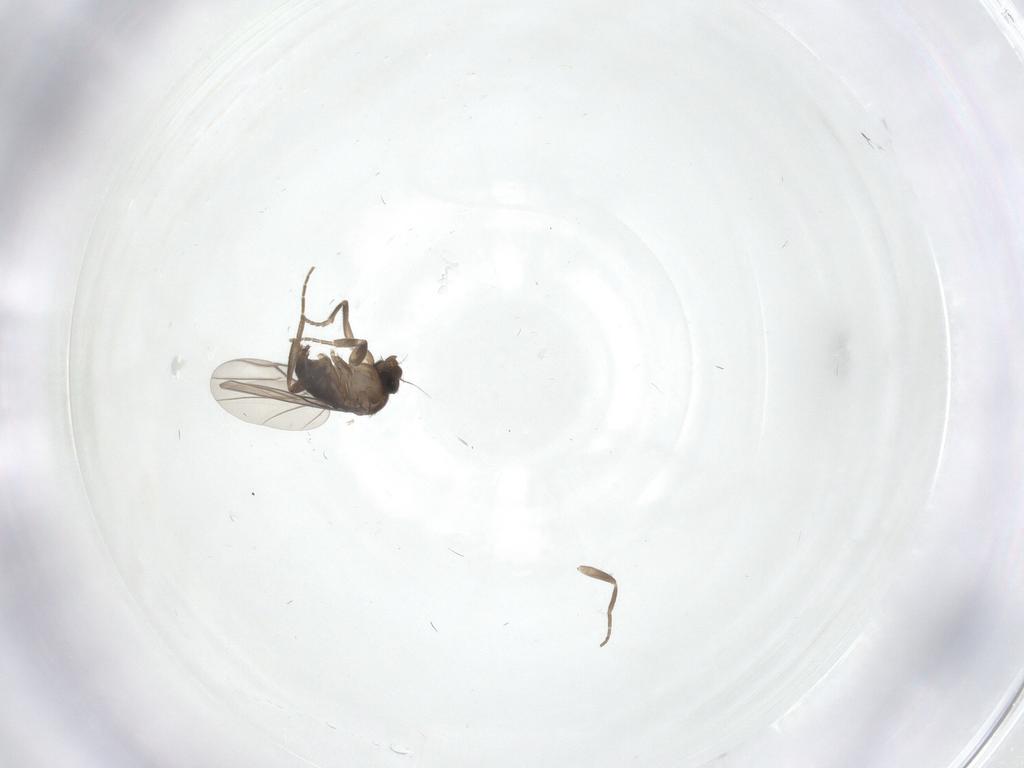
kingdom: Animalia
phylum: Arthropoda
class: Insecta
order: Diptera
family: Phoridae
